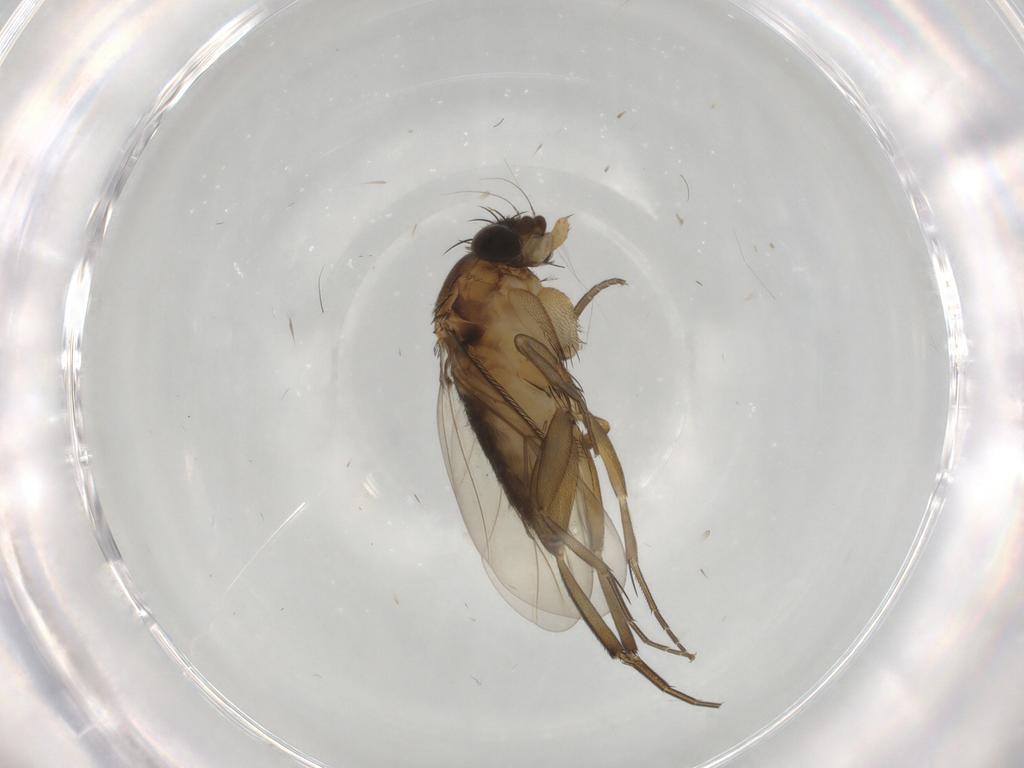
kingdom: Animalia
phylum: Arthropoda
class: Insecta
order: Diptera
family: Phoridae
